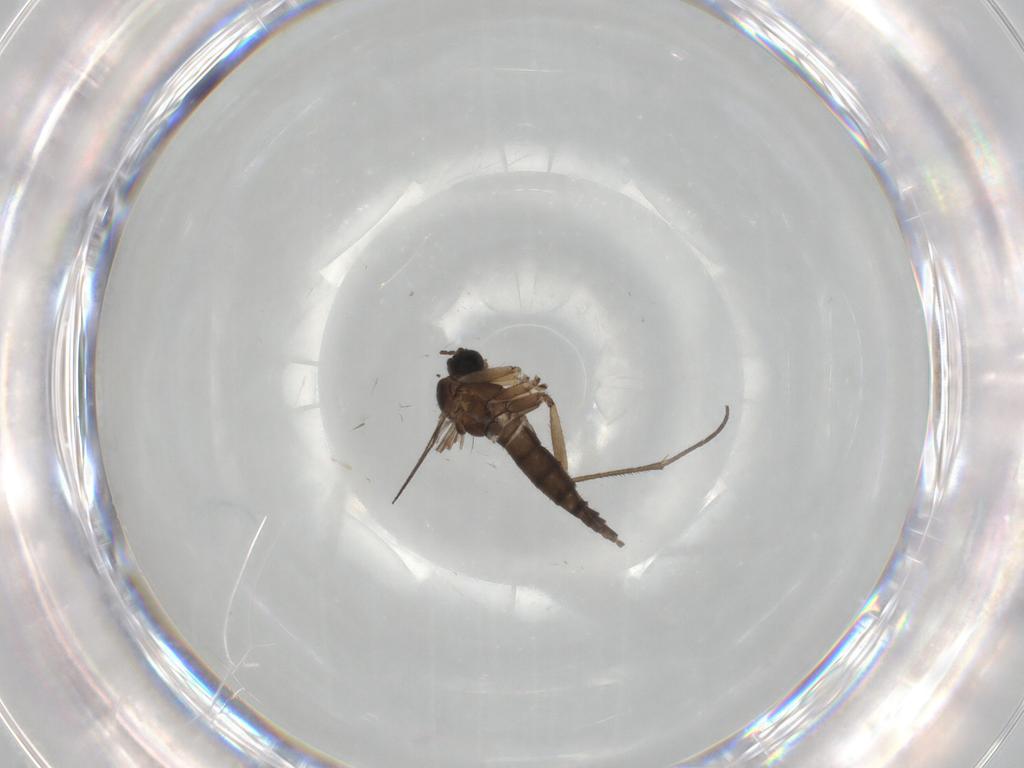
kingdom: Animalia
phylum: Arthropoda
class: Insecta
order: Diptera
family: Sciaridae
